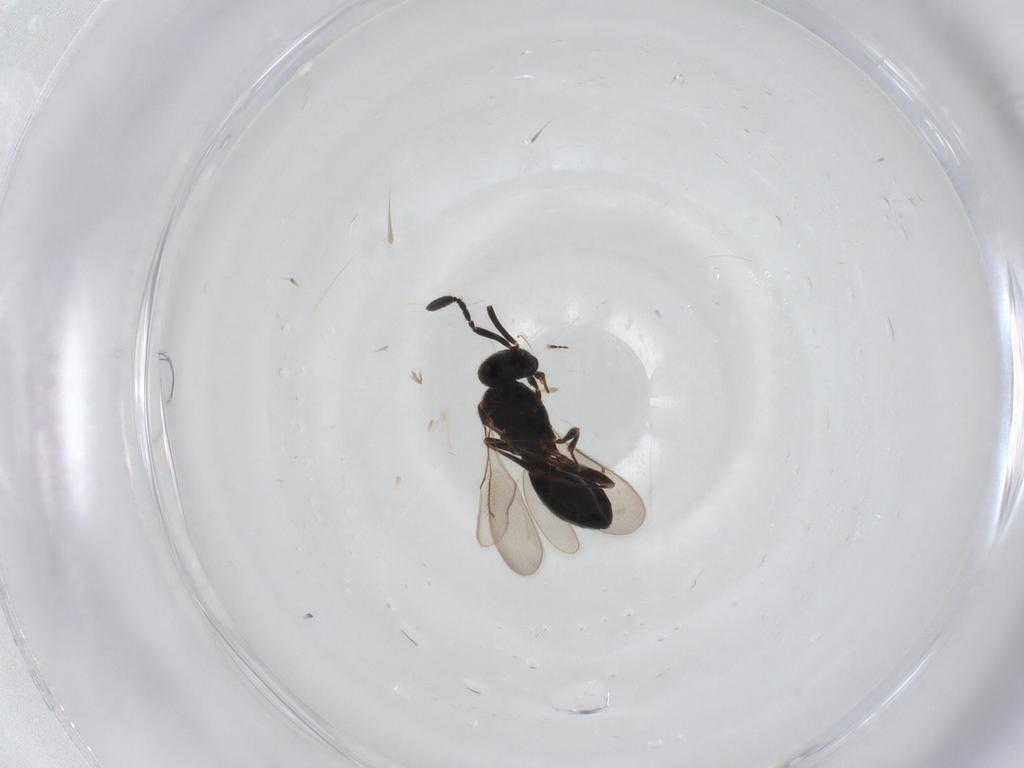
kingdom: Animalia
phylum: Arthropoda
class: Insecta
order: Hymenoptera
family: Scelionidae
